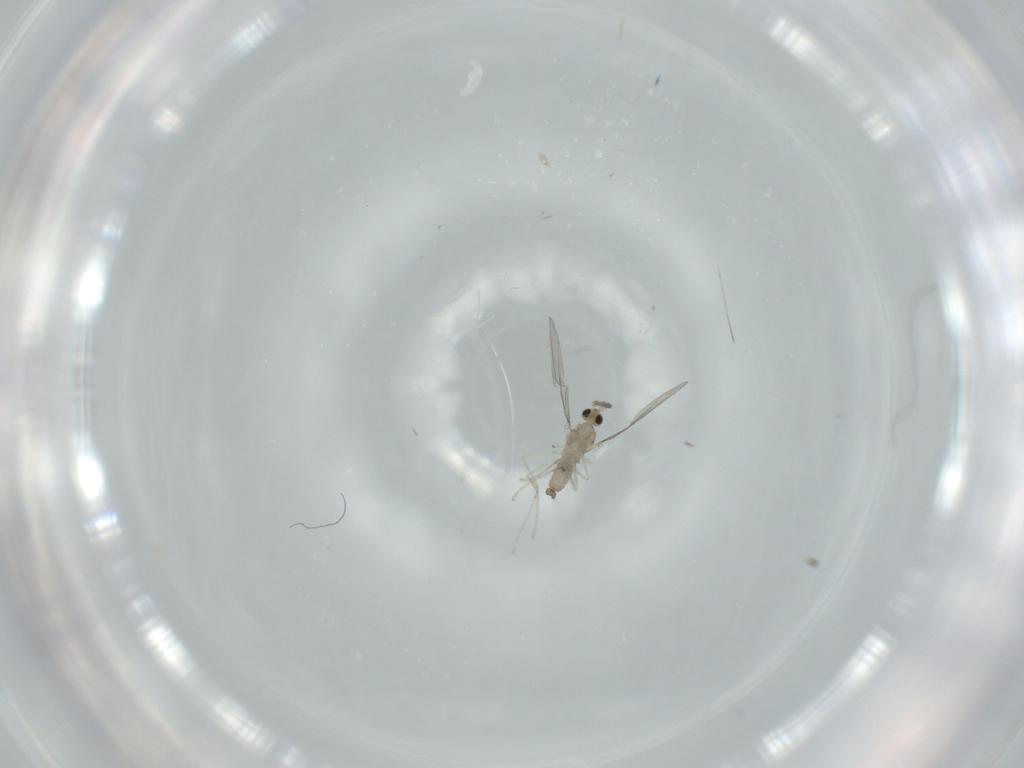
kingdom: Animalia
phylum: Arthropoda
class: Insecta
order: Diptera
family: Cecidomyiidae
